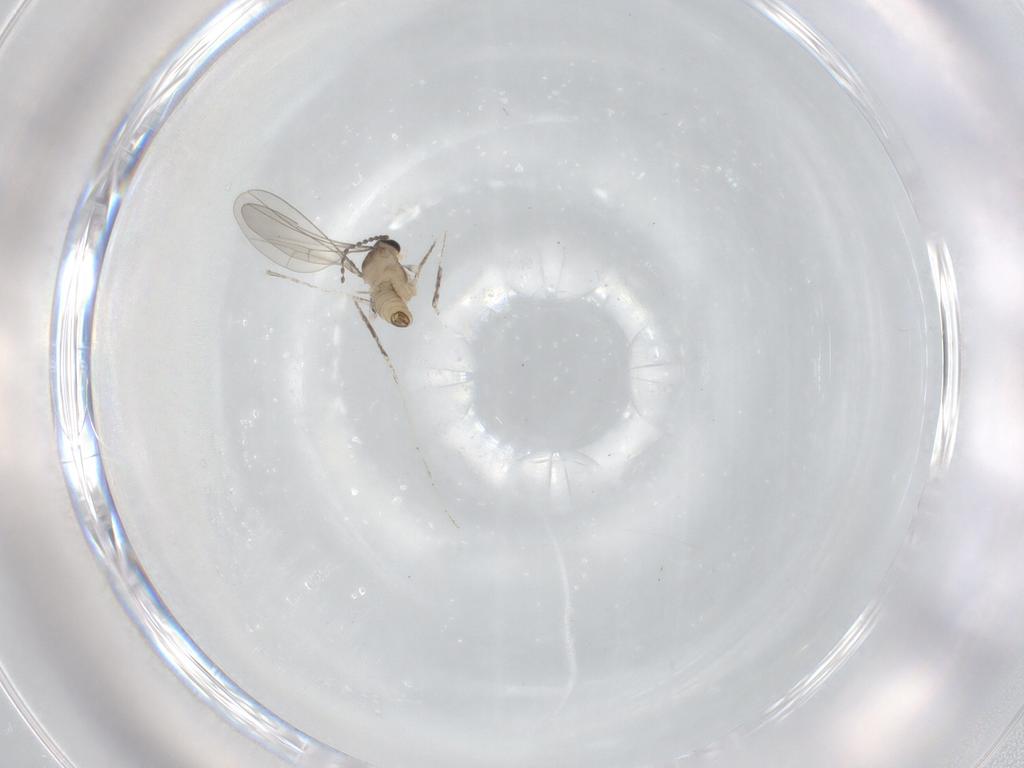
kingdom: Animalia
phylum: Arthropoda
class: Insecta
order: Diptera
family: Cecidomyiidae
